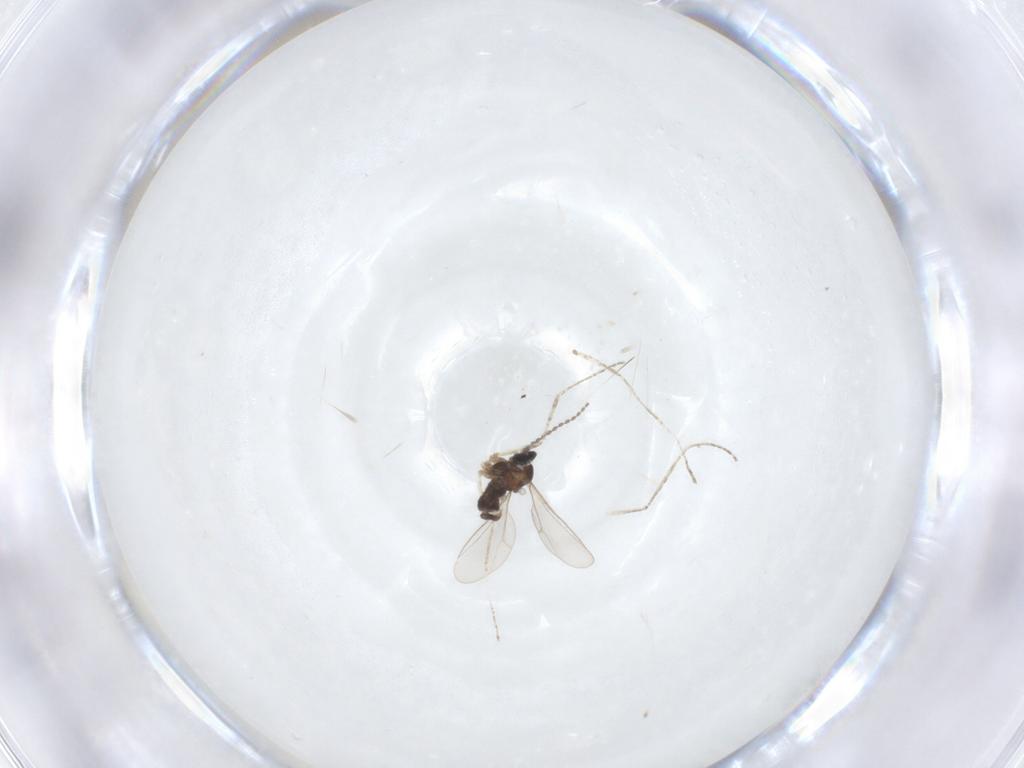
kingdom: Animalia
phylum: Arthropoda
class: Insecta
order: Diptera
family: Cecidomyiidae
